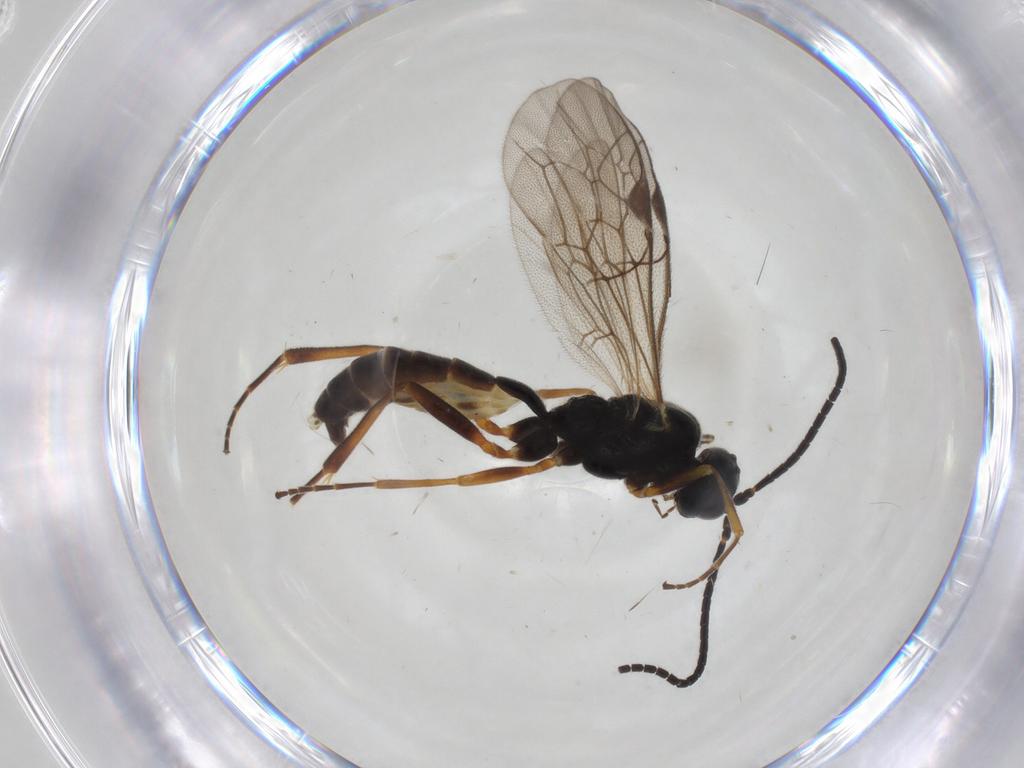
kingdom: Animalia
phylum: Arthropoda
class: Insecta
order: Hymenoptera
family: Ichneumonidae
